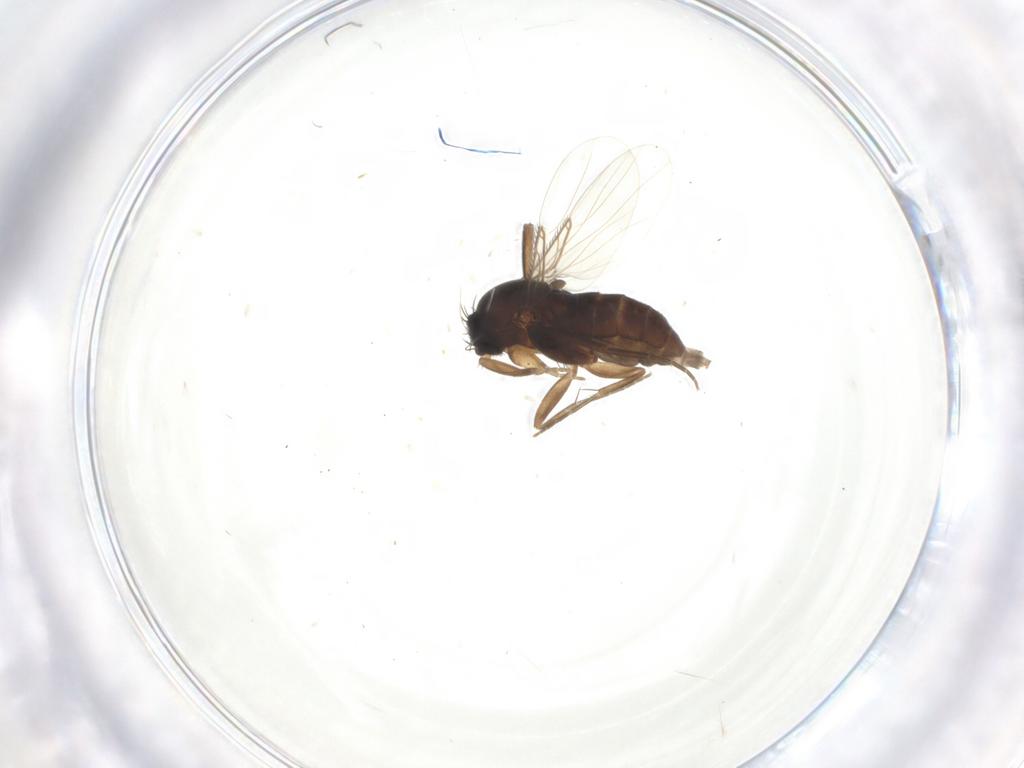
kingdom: Animalia
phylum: Arthropoda
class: Insecta
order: Diptera
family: Phoridae
